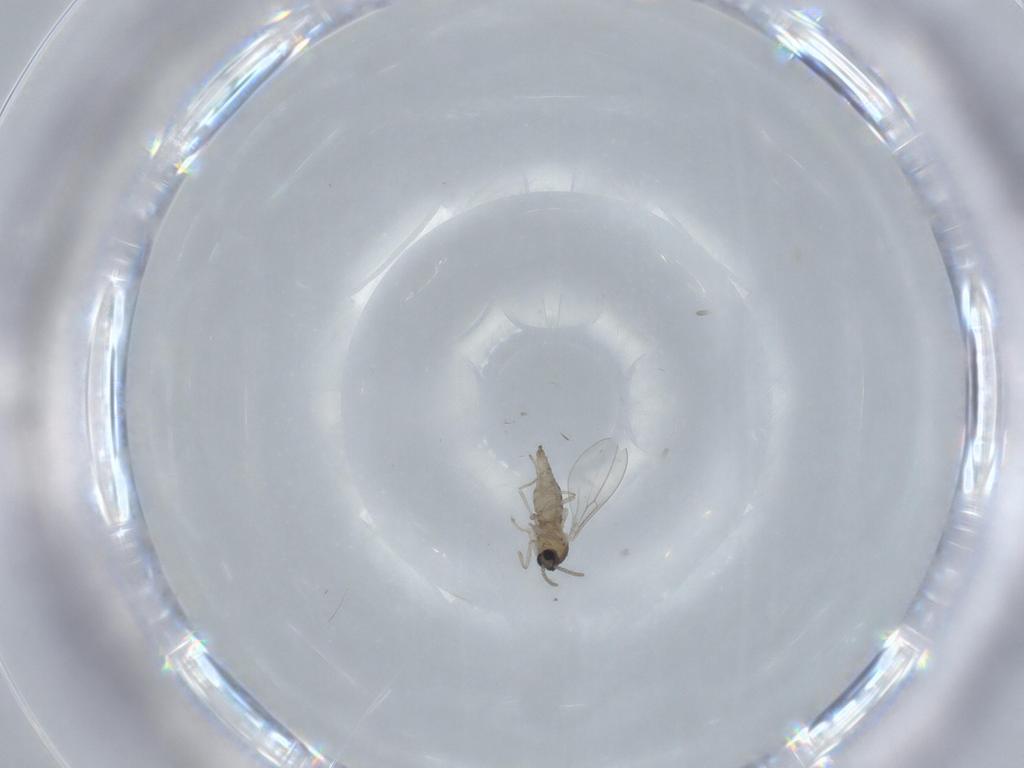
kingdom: Animalia
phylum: Arthropoda
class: Insecta
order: Diptera
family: Cecidomyiidae
